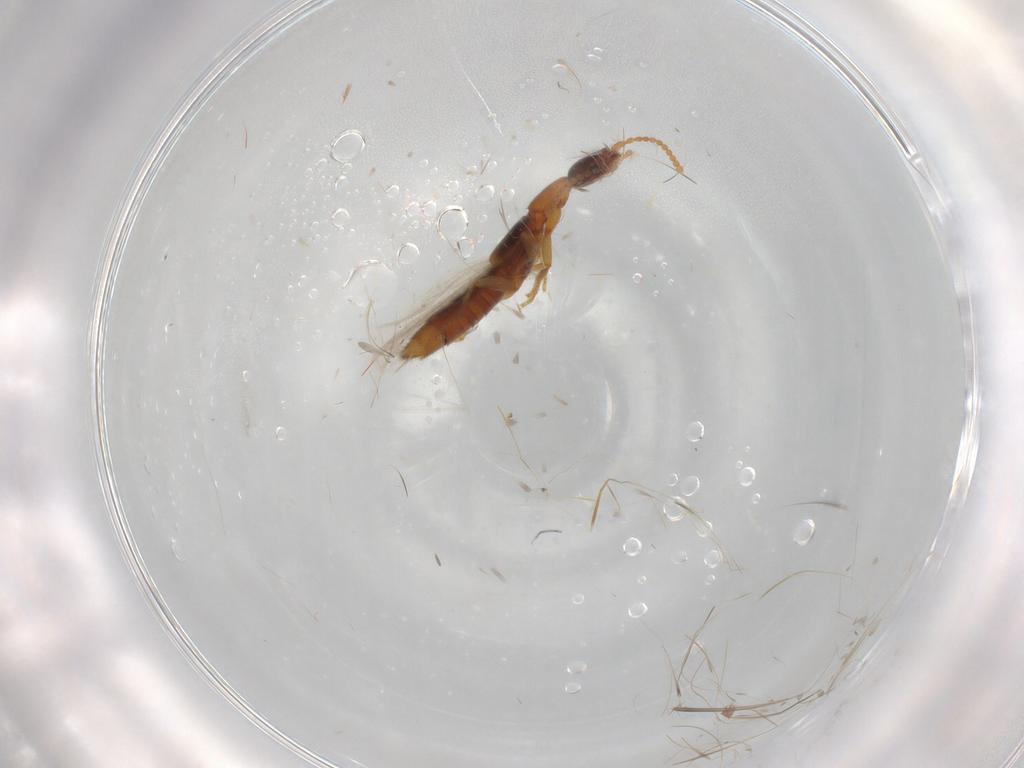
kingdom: Animalia
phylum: Arthropoda
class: Insecta
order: Coleoptera
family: Staphylinidae
